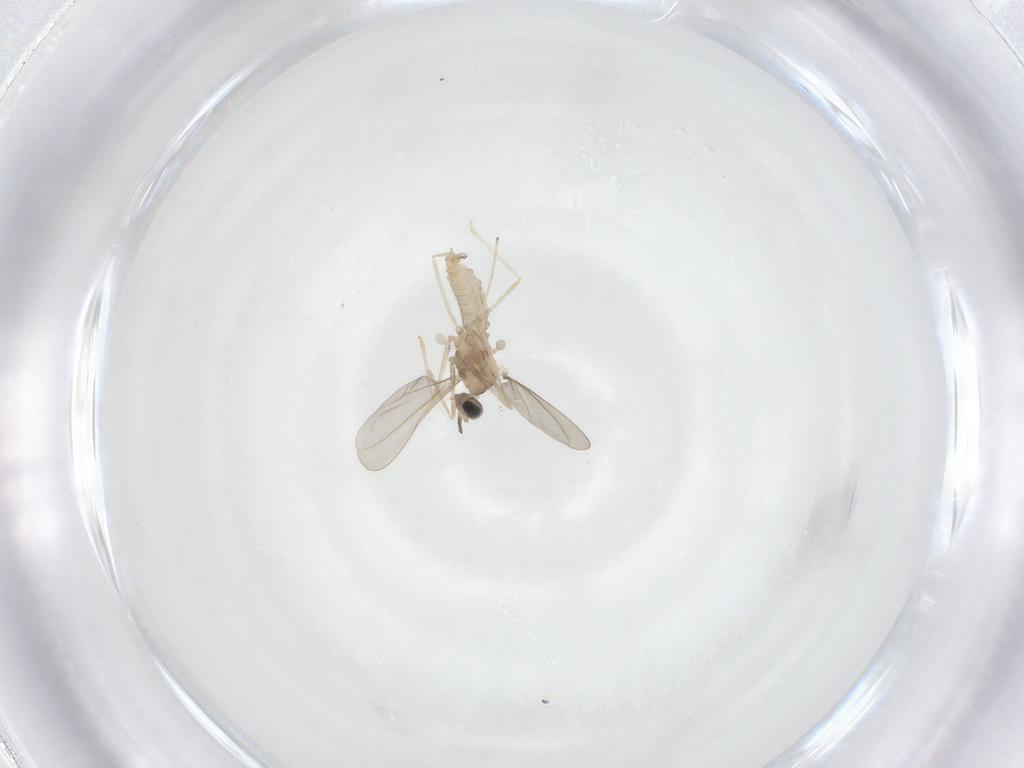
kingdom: Animalia
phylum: Arthropoda
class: Insecta
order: Diptera
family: Cecidomyiidae
